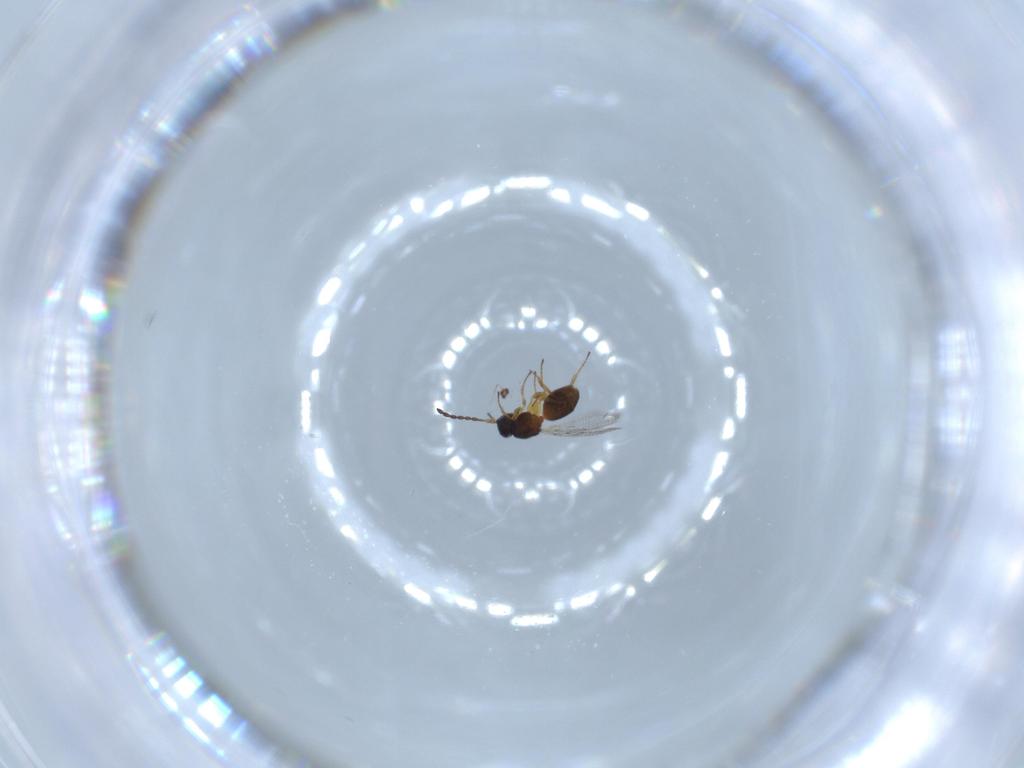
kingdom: Animalia
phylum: Arthropoda
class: Insecta
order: Hymenoptera
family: Figitidae
